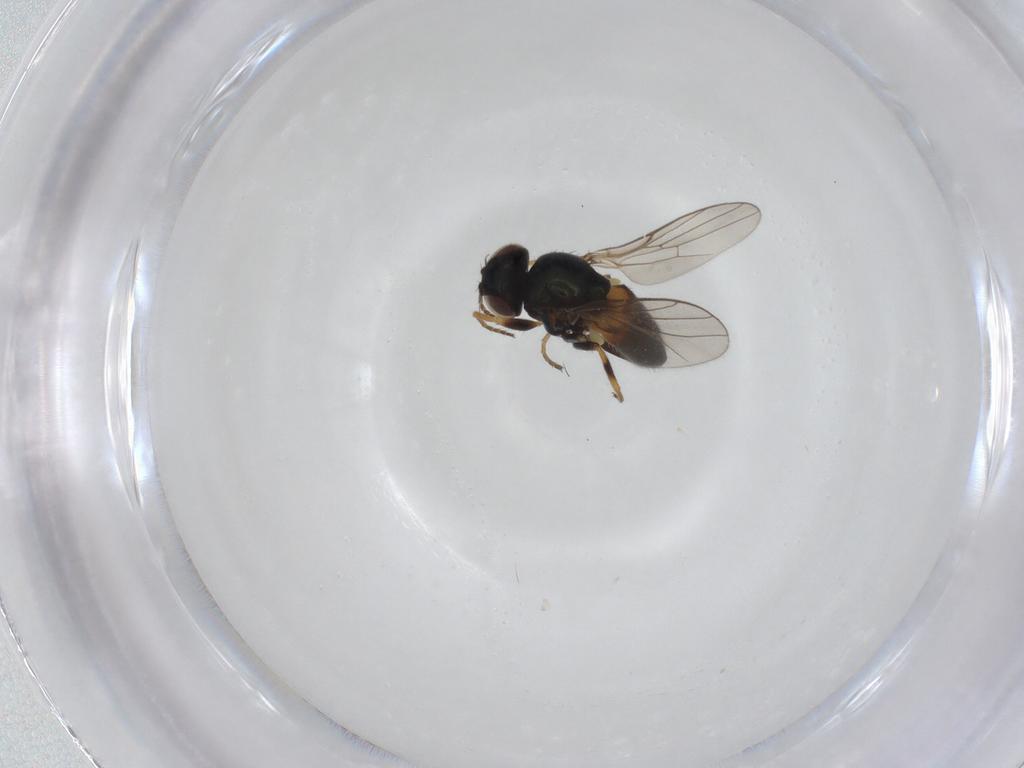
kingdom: Animalia
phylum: Arthropoda
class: Insecta
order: Diptera
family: Chloropidae
